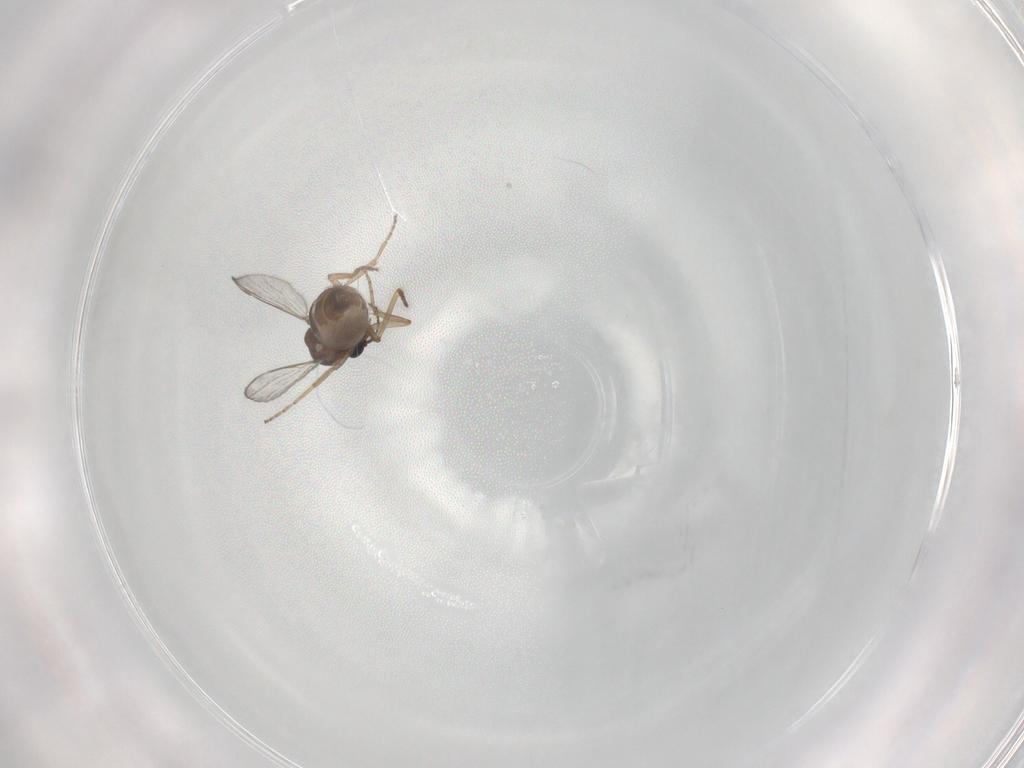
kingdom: Animalia
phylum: Arthropoda
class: Insecta
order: Diptera
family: Ceratopogonidae
